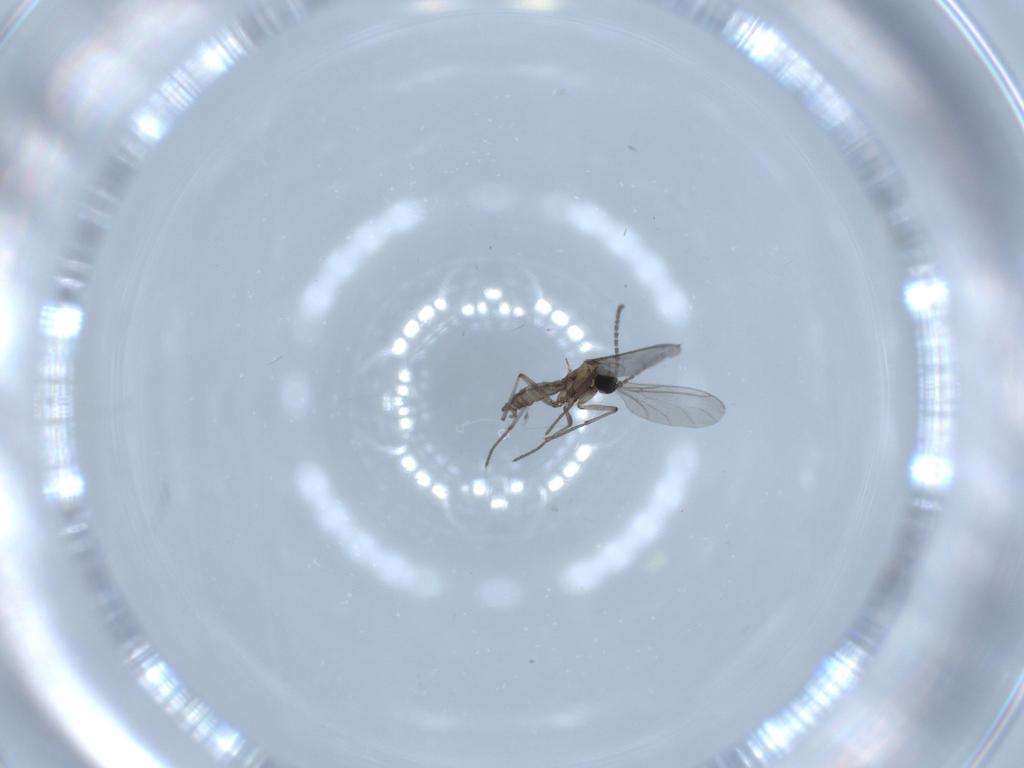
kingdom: Animalia
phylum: Arthropoda
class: Insecta
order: Diptera
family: Sciaridae
